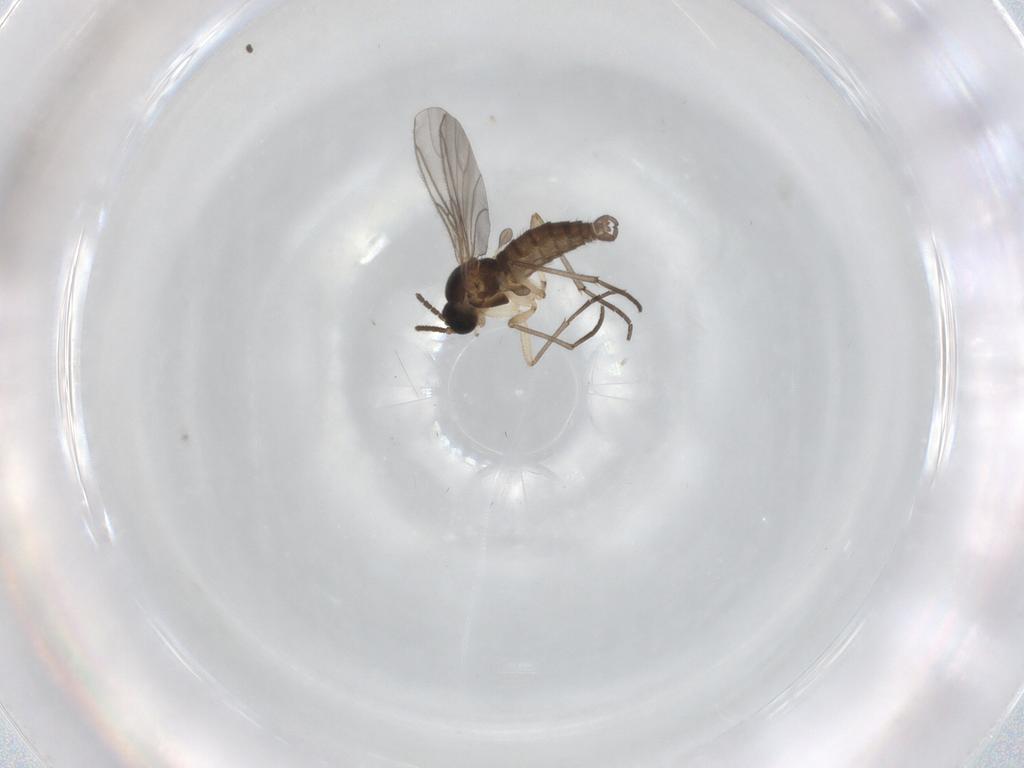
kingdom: Animalia
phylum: Arthropoda
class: Insecta
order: Diptera
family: Sciaridae
